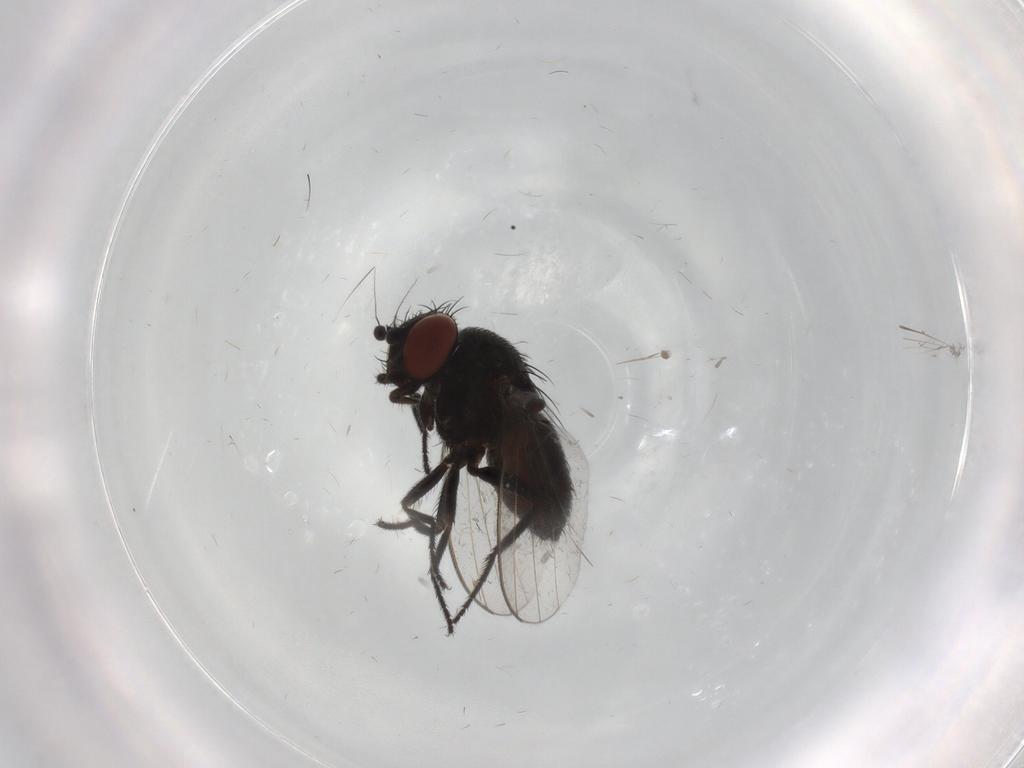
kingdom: Animalia
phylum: Arthropoda
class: Insecta
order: Diptera
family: Milichiidae
